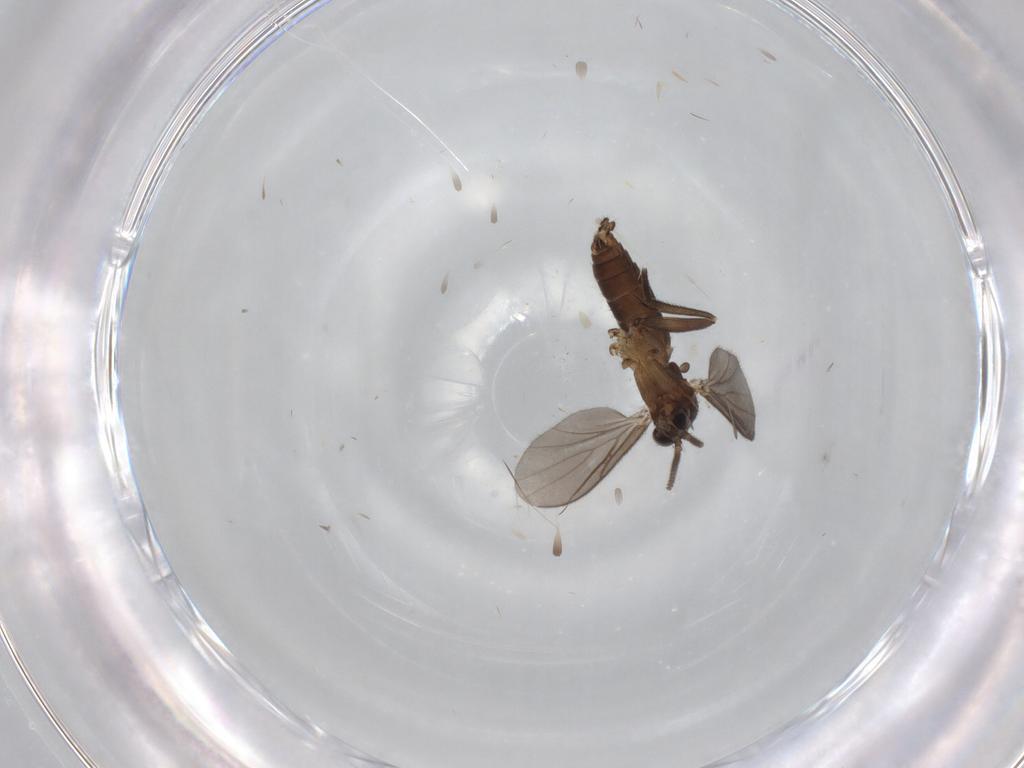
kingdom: Animalia
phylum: Arthropoda
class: Insecta
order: Diptera
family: Mycetophilidae
